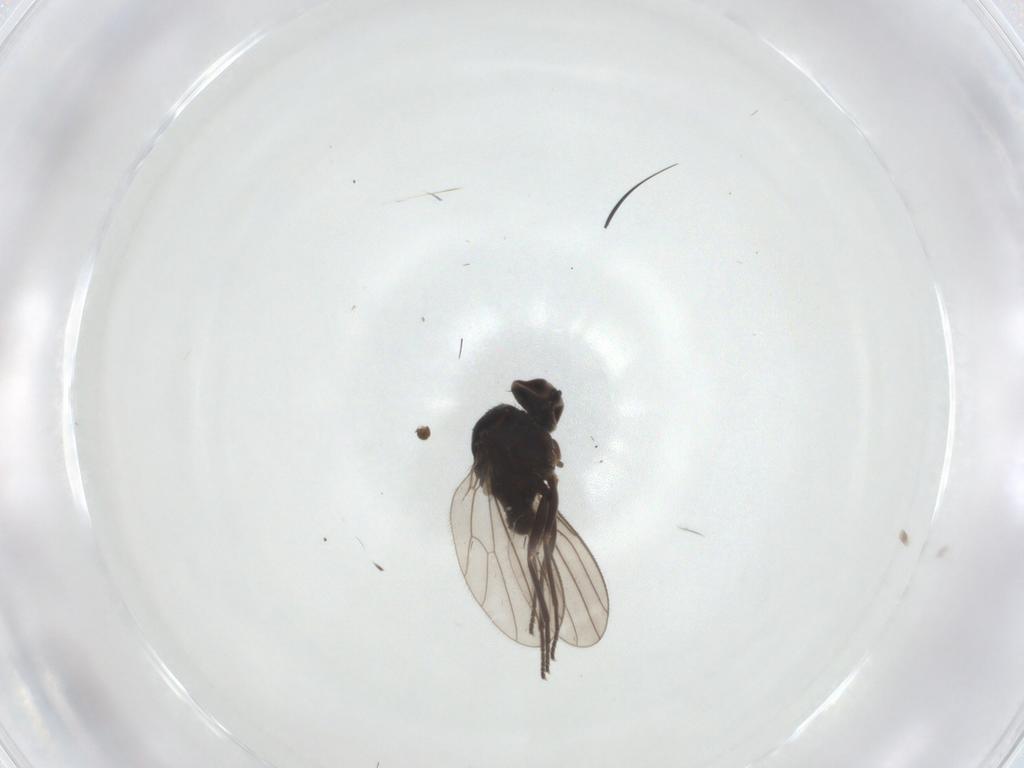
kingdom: Animalia
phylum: Arthropoda
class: Insecta
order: Diptera
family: Dolichopodidae
